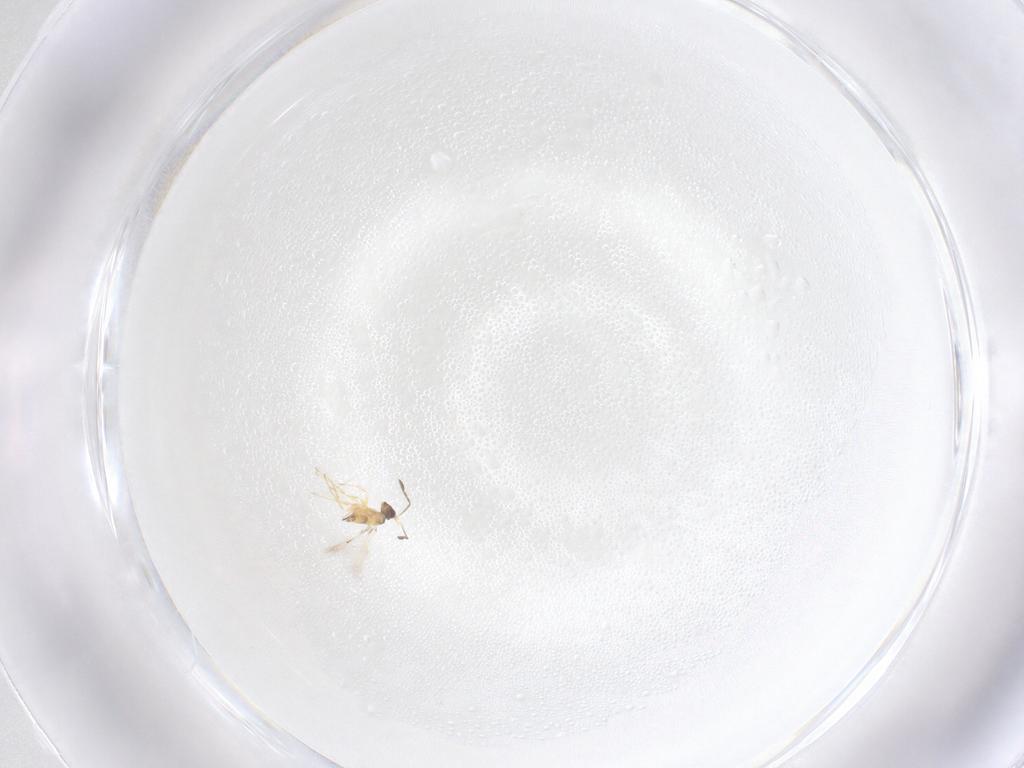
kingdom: Animalia
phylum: Arthropoda
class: Insecta
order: Hymenoptera
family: Mymaridae
